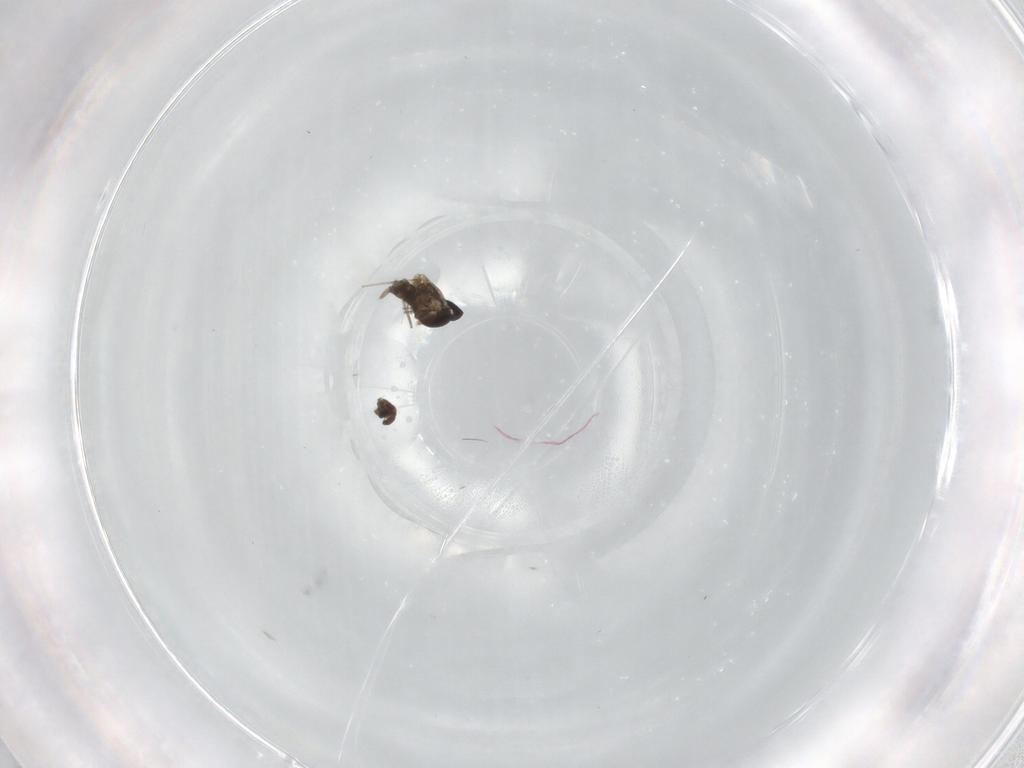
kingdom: Animalia
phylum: Arthropoda
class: Insecta
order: Diptera
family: Cecidomyiidae
